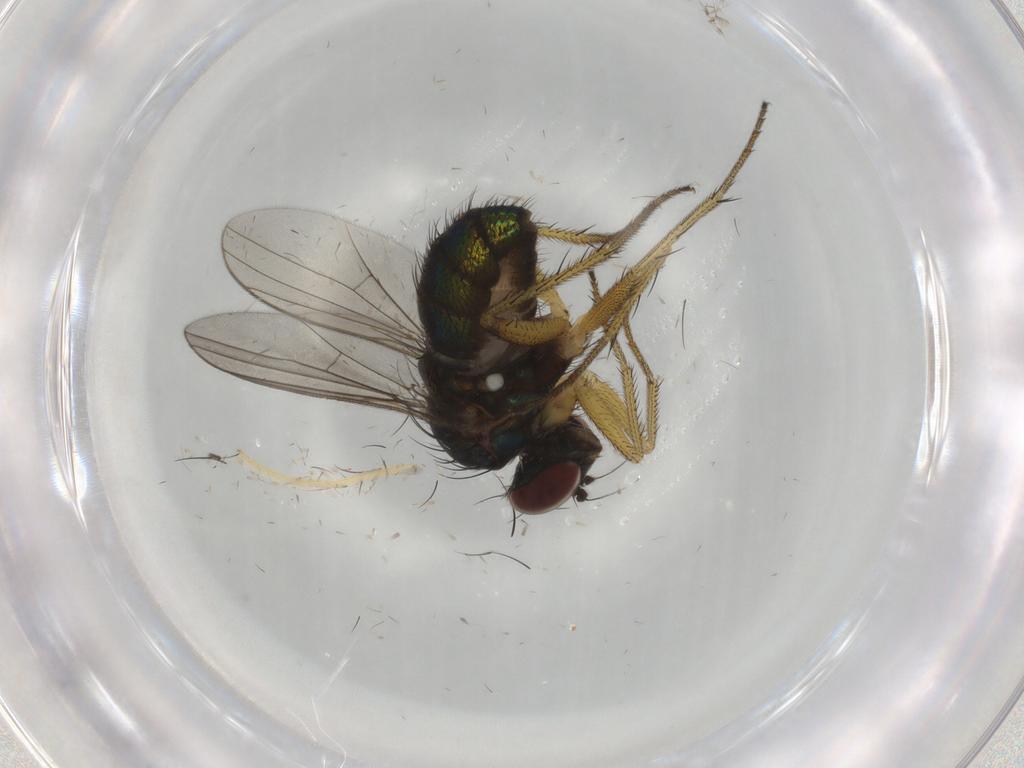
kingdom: Animalia
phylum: Arthropoda
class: Insecta
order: Diptera
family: Dolichopodidae
